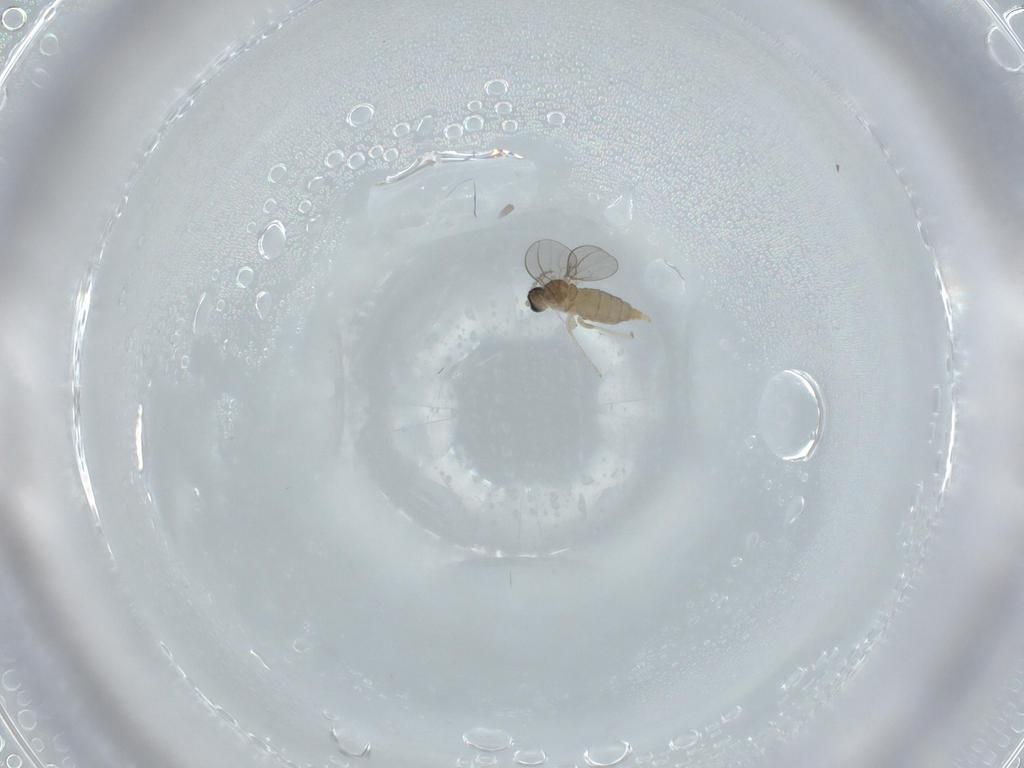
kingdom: Animalia
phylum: Arthropoda
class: Insecta
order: Diptera
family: Cecidomyiidae
